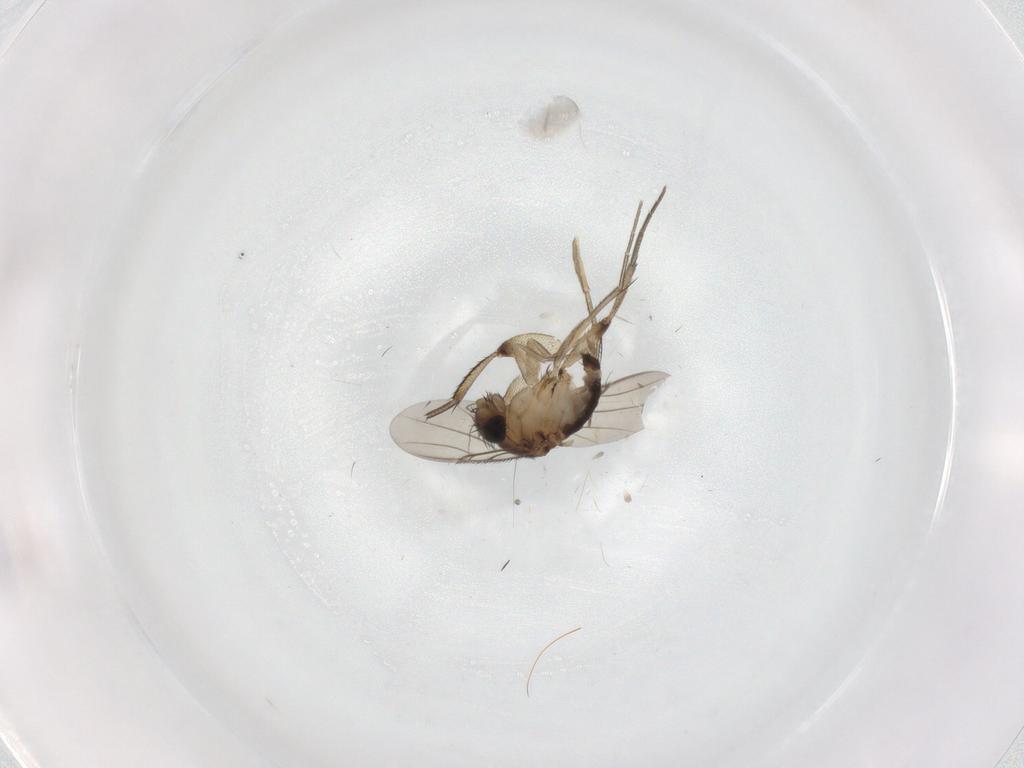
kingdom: Animalia
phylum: Arthropoda
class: Insecta
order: Diptera
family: Phoridae
